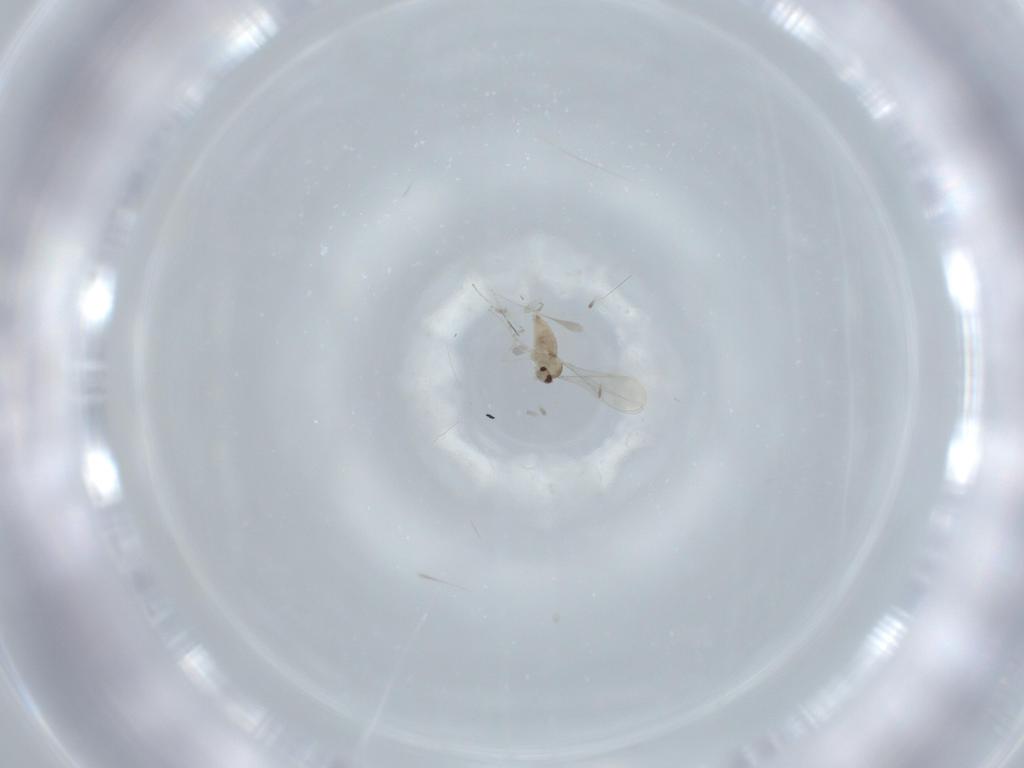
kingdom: Animalia
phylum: Arthropoda
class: Insecta
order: Diptera
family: Cecidomyiidae
